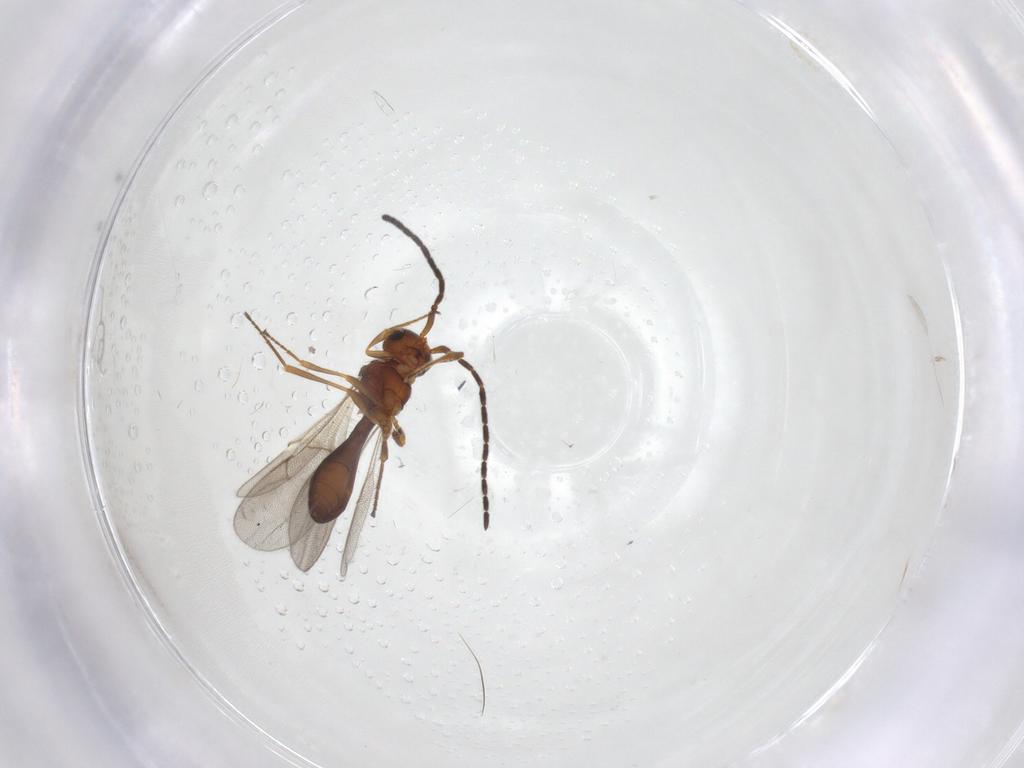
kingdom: Animalia
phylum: Arthropoda
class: Insecta
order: Hymenoptera
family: Scelionidae
